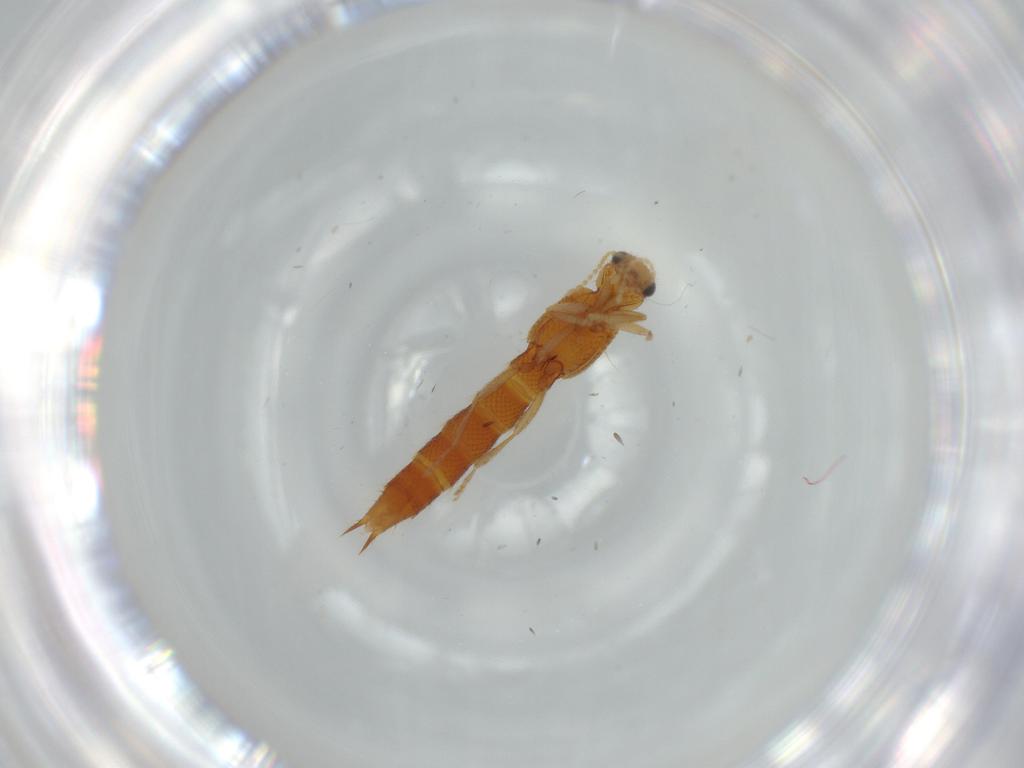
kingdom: Animalia
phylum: Arthropoda
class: Insecta
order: Coleoptera
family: Staphylinidae
